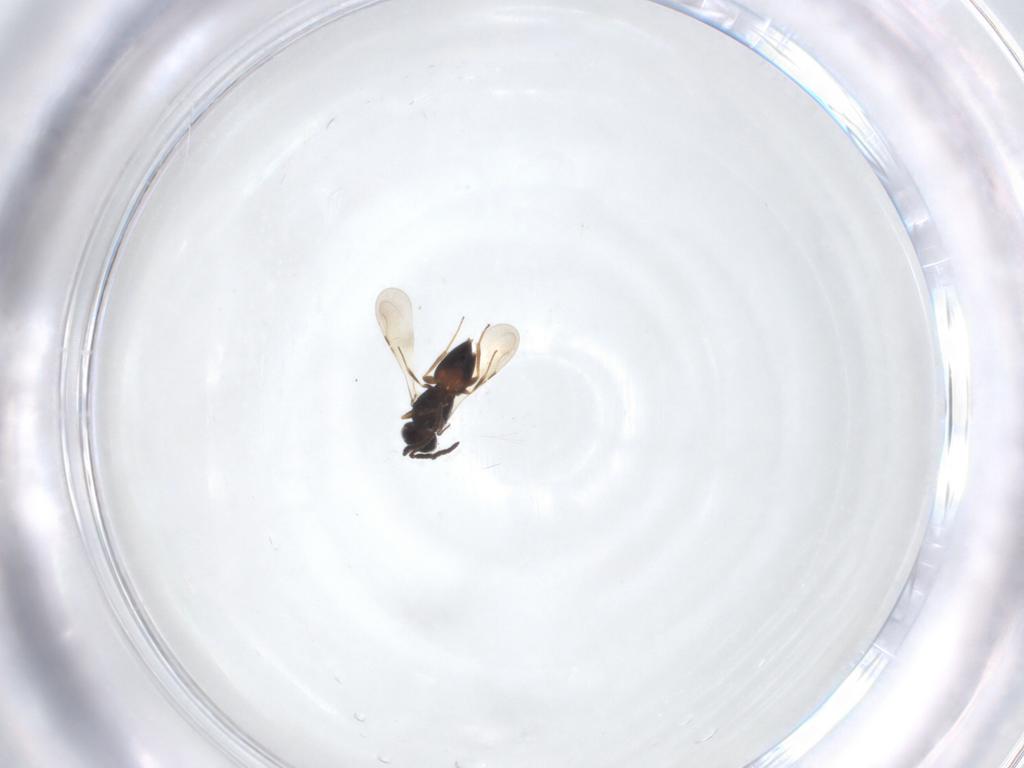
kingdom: Animalia
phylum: Arthropoda
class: Insecta
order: Hymenoptera
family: Ceraphronidae
